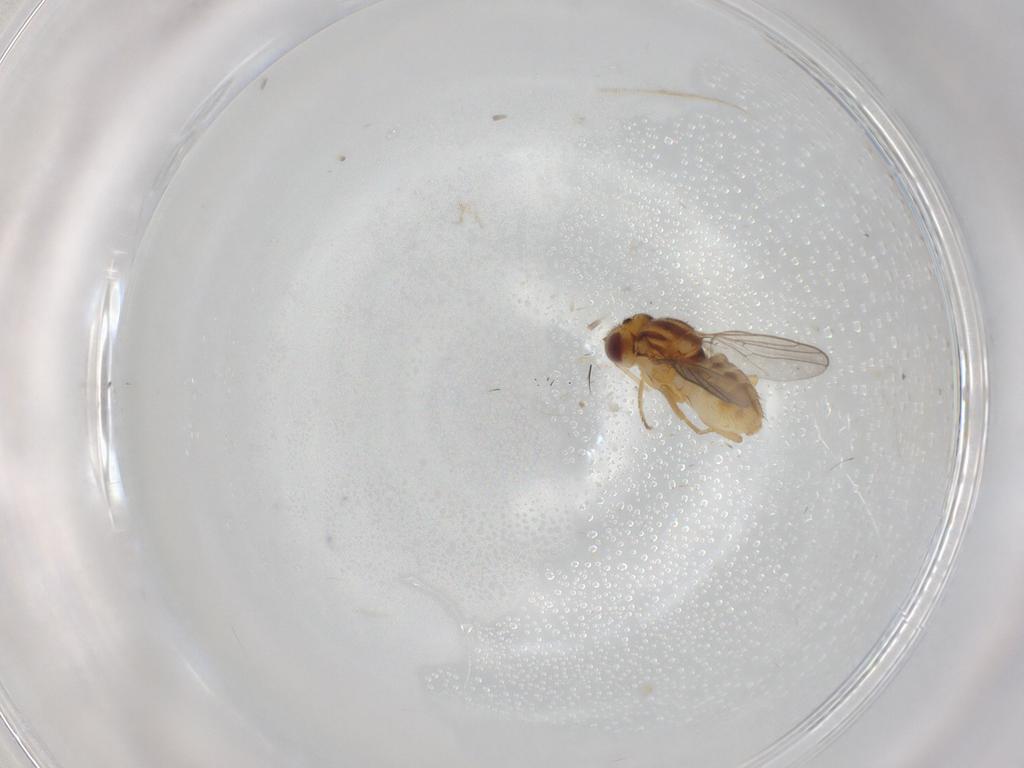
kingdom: Animalia
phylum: Arthropoda
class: Insecta
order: Diptera
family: Chloropidae
